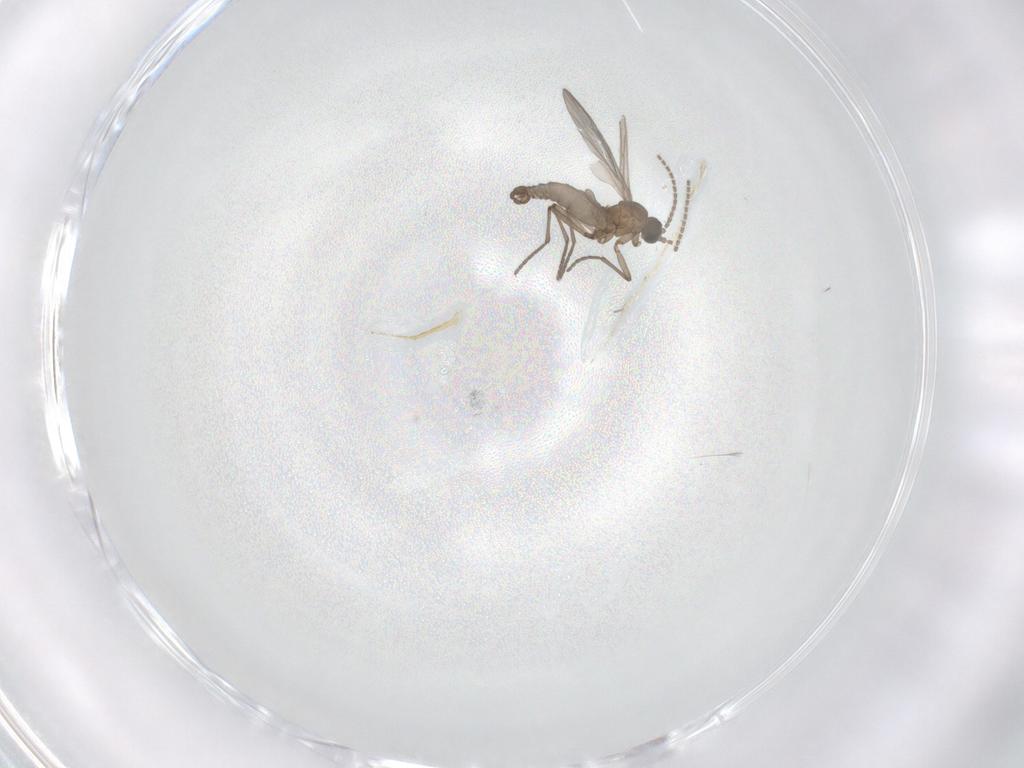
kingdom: Animalia
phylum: Arthropoda
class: Insecta
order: Diptera
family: Sciaridae
